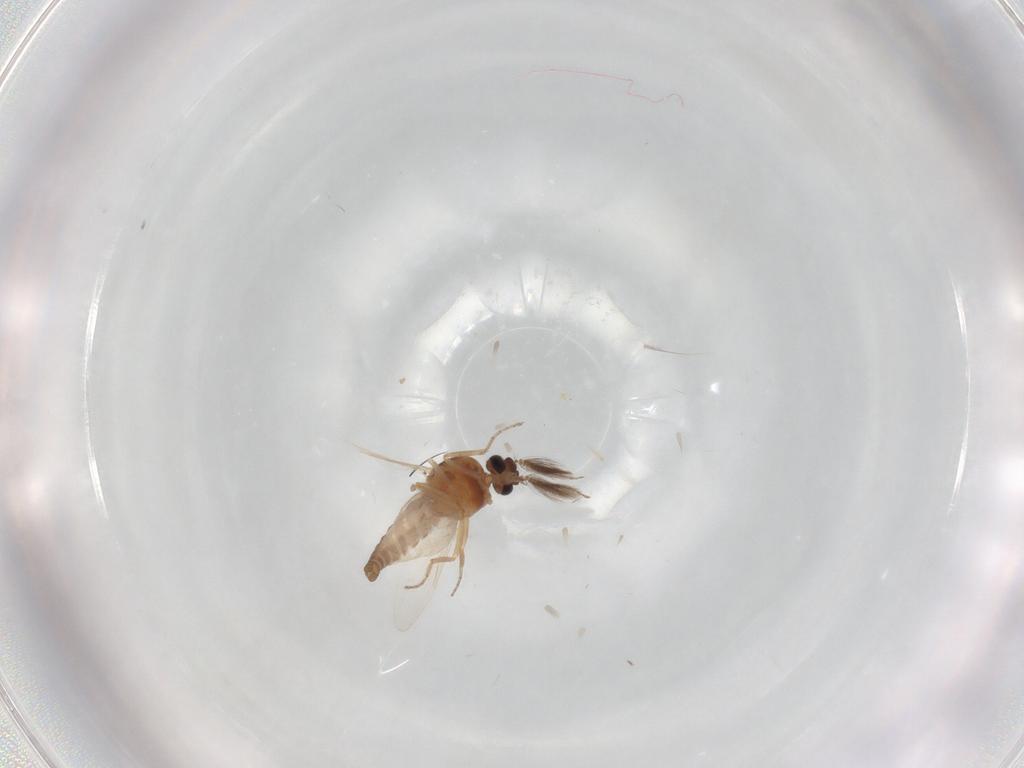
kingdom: Animalia
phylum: Arthropoda
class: Insecta
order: Diptera
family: Ceratopogonidae
